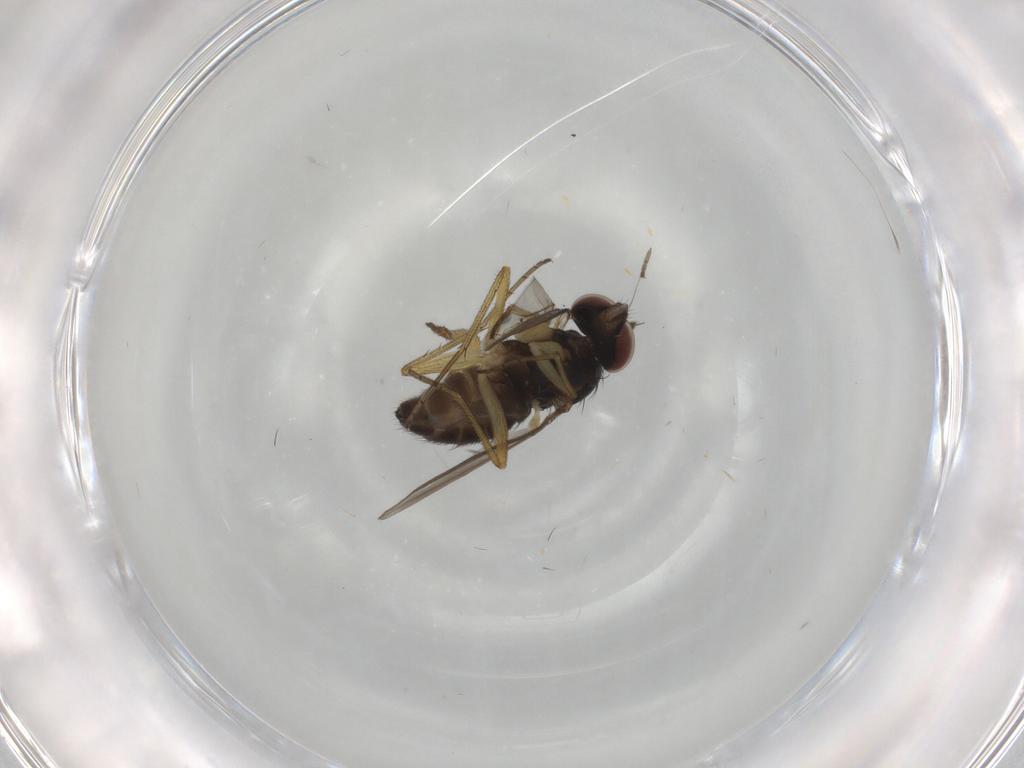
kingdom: Animalia
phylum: Arthropoda
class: Insecta
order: Diptera
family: Dolichopodidae
